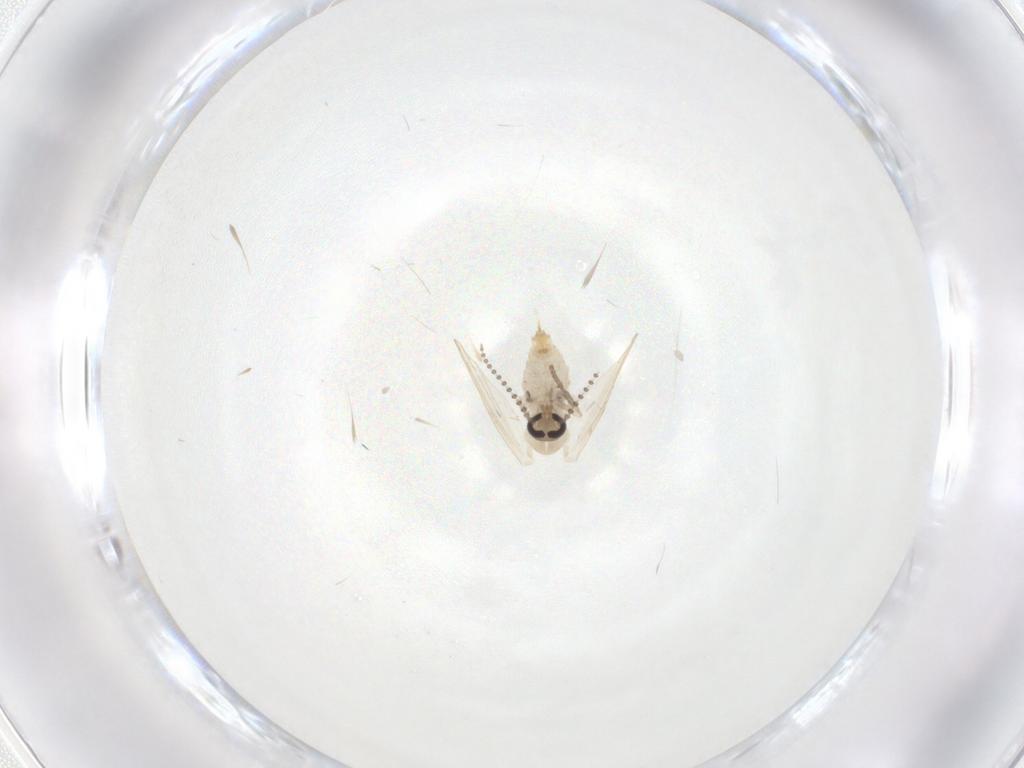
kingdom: Animalia
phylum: Arthropoda
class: Insecta
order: Diptera
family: Psychodidae
